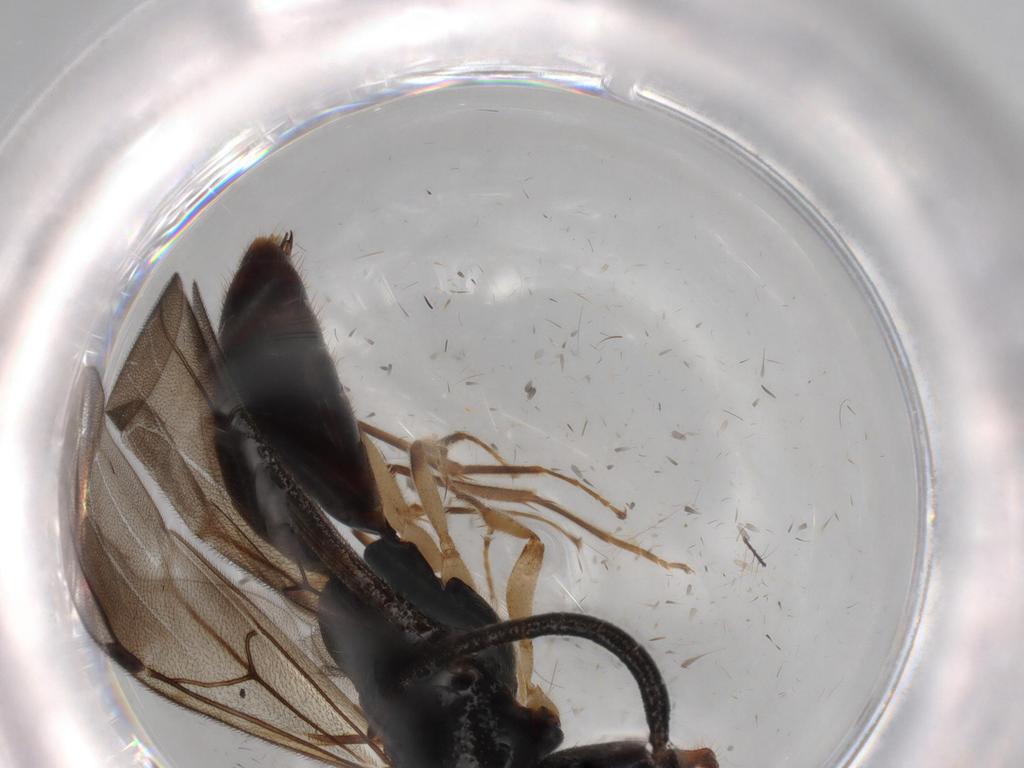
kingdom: Animalia
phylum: Arthropoda
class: Insecta
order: Hymenoptera
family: Bethylidae
